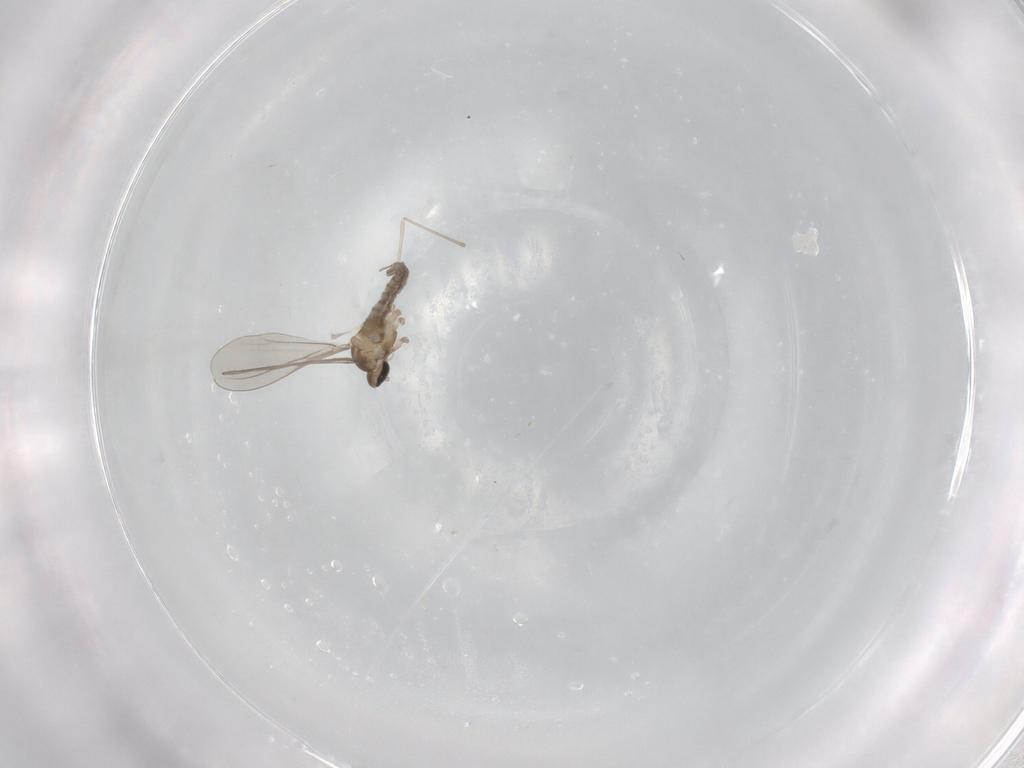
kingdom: Animalia
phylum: Arthropoda
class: Insecta
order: Diptera
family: Cecidomyiidae
